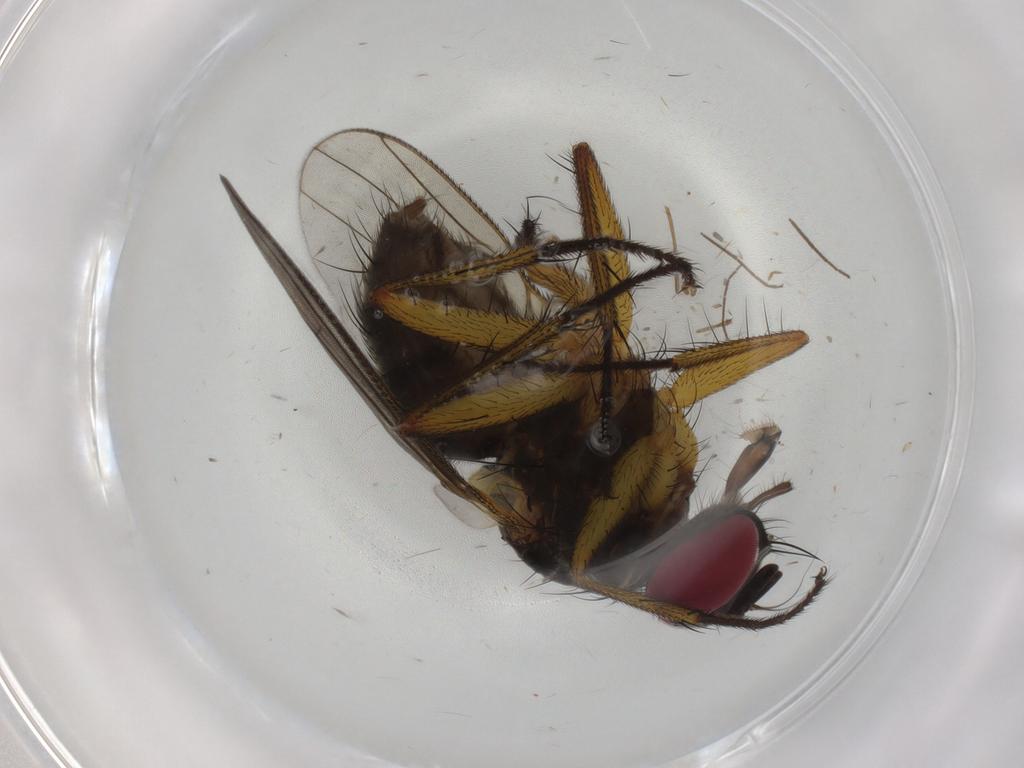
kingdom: Animalia
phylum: Arthropoda
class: Insecta
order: Diptera
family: Muscidae
